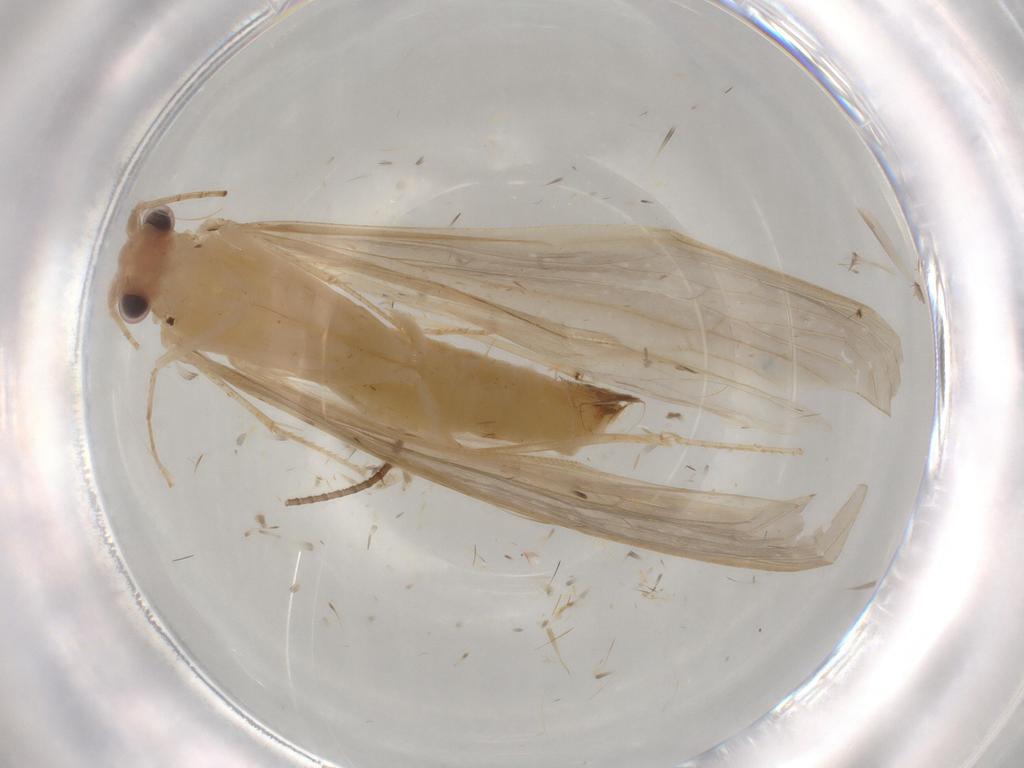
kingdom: Animalia
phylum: Arthropoda
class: Insecta
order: Trichoptera
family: Leptoceridae
